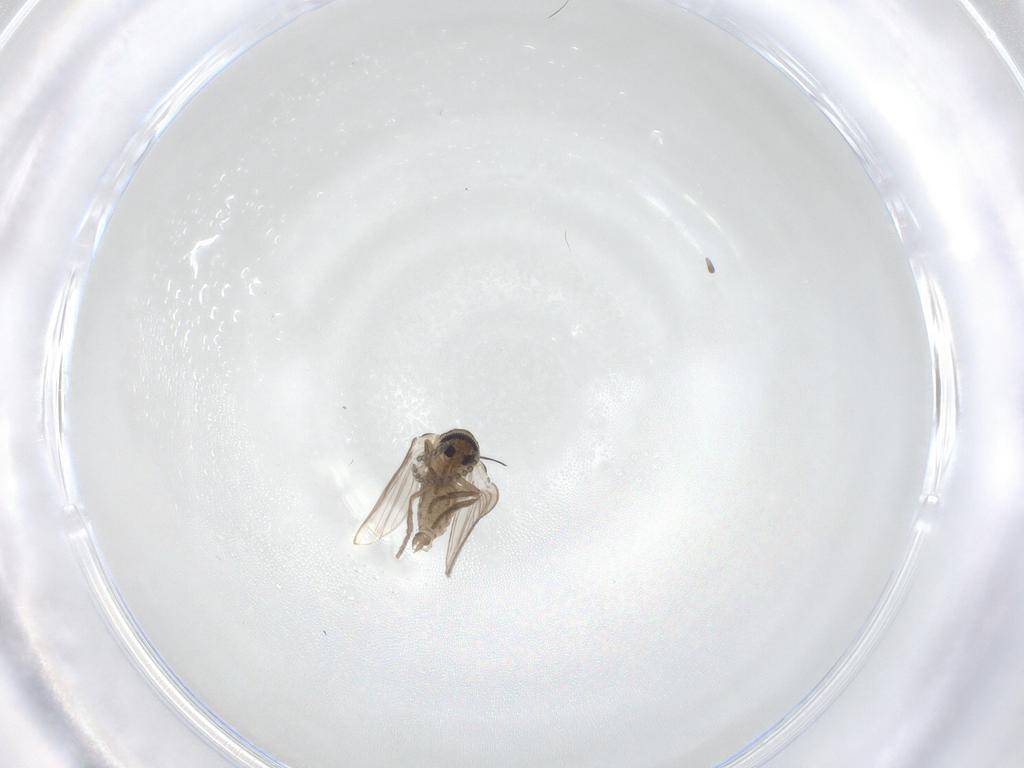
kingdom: Animalia
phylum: Arthropoda
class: Insecta
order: Diptera
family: Psychodidae
